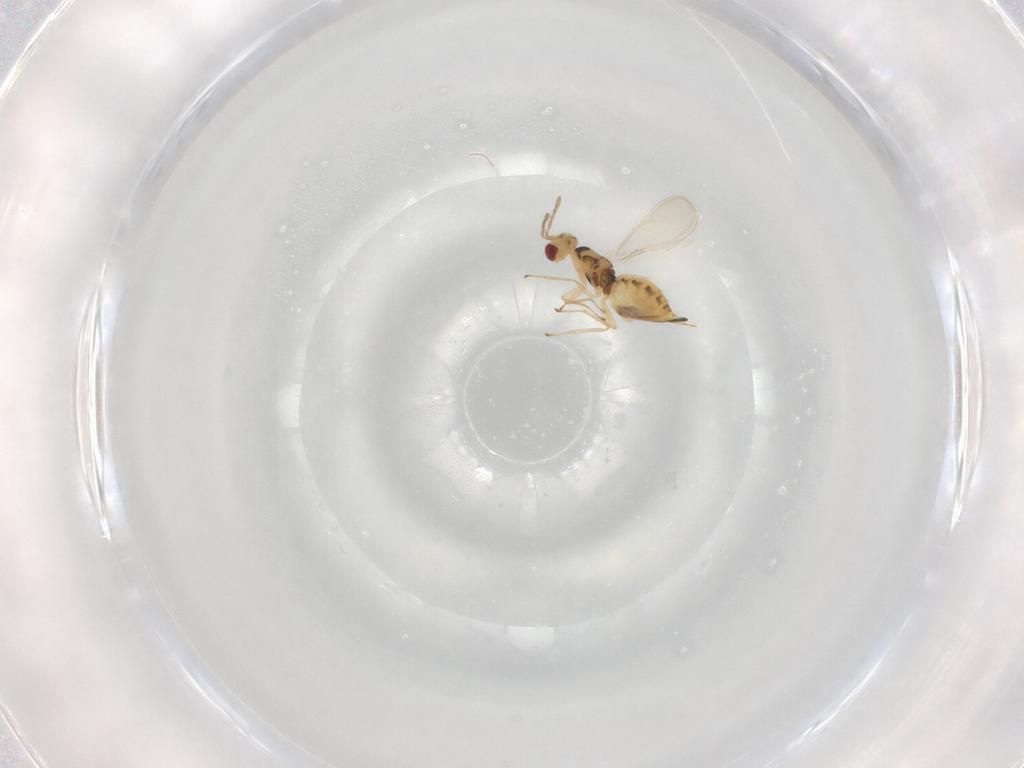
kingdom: Animalia
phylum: Arthropoda
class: Insecta
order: Hymenoptera
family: Eulophidae
